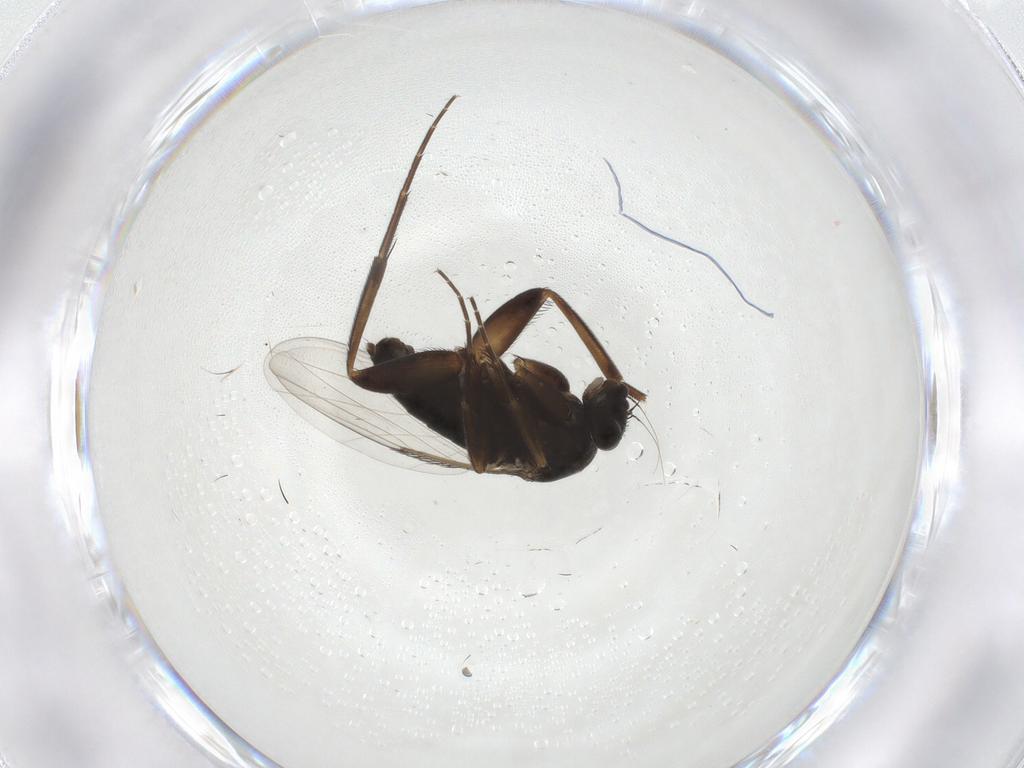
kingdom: Animalia
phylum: Arthropoda
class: Insecta
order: Diptera
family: Phoridae
